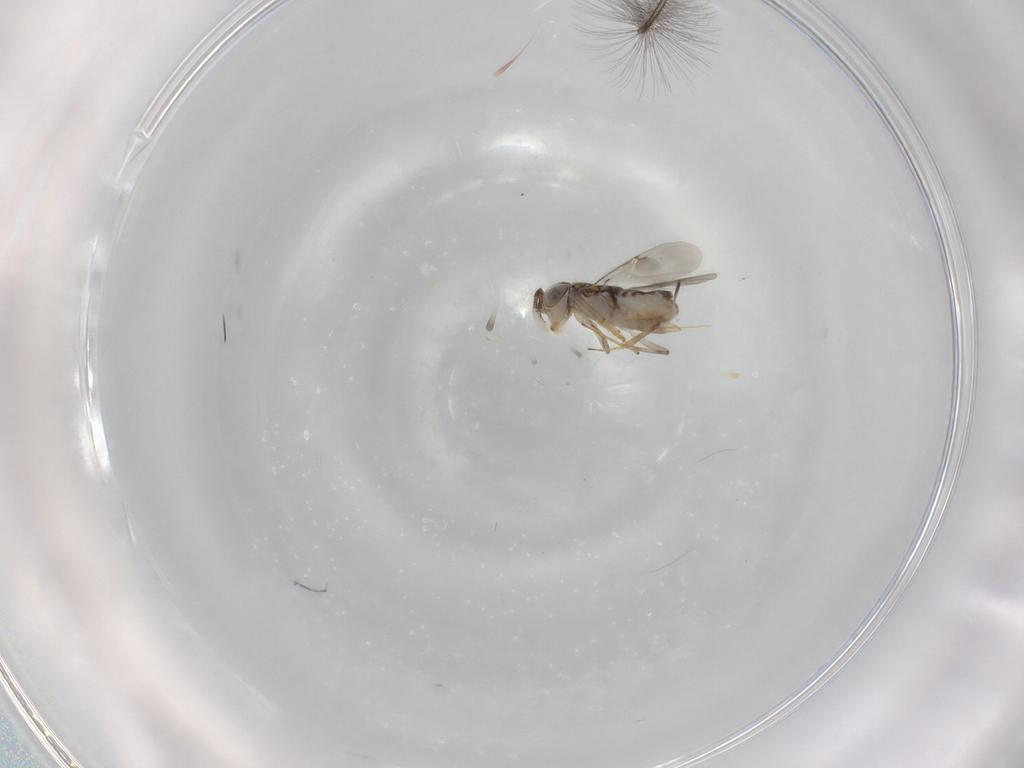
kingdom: Animalia
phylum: Arthropoda
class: Insecta
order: Hymenoptera
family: Encyrtidae
